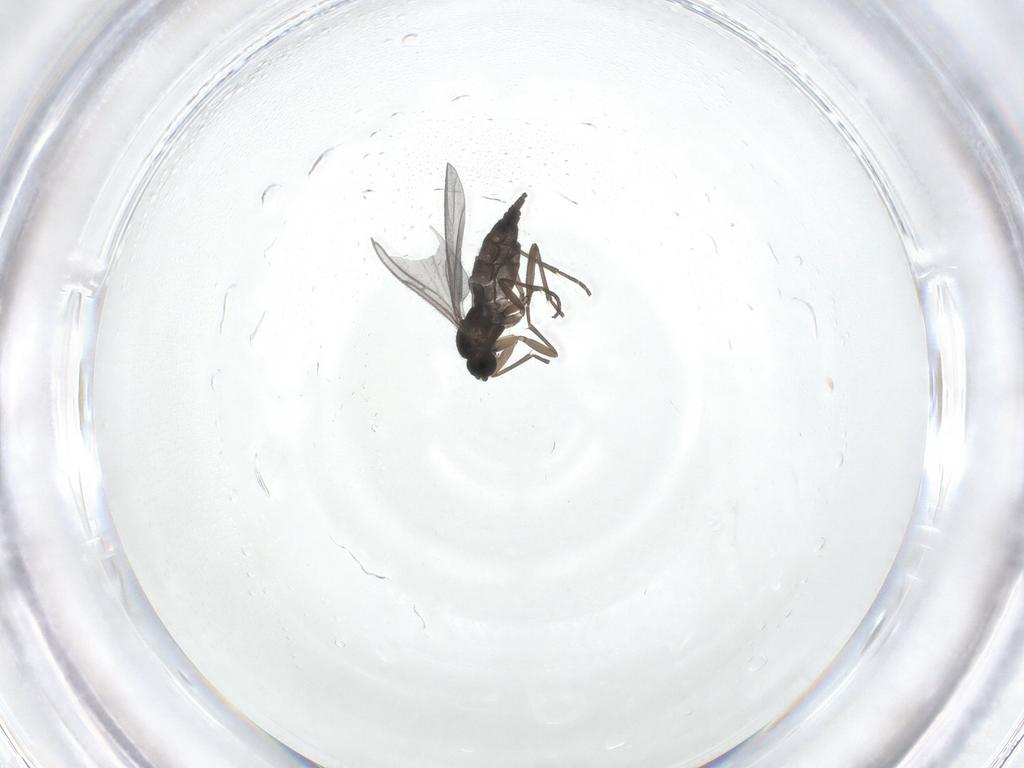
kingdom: Animalia
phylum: Arthropoda
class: Insecta
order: Diptera
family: Sciaridae
